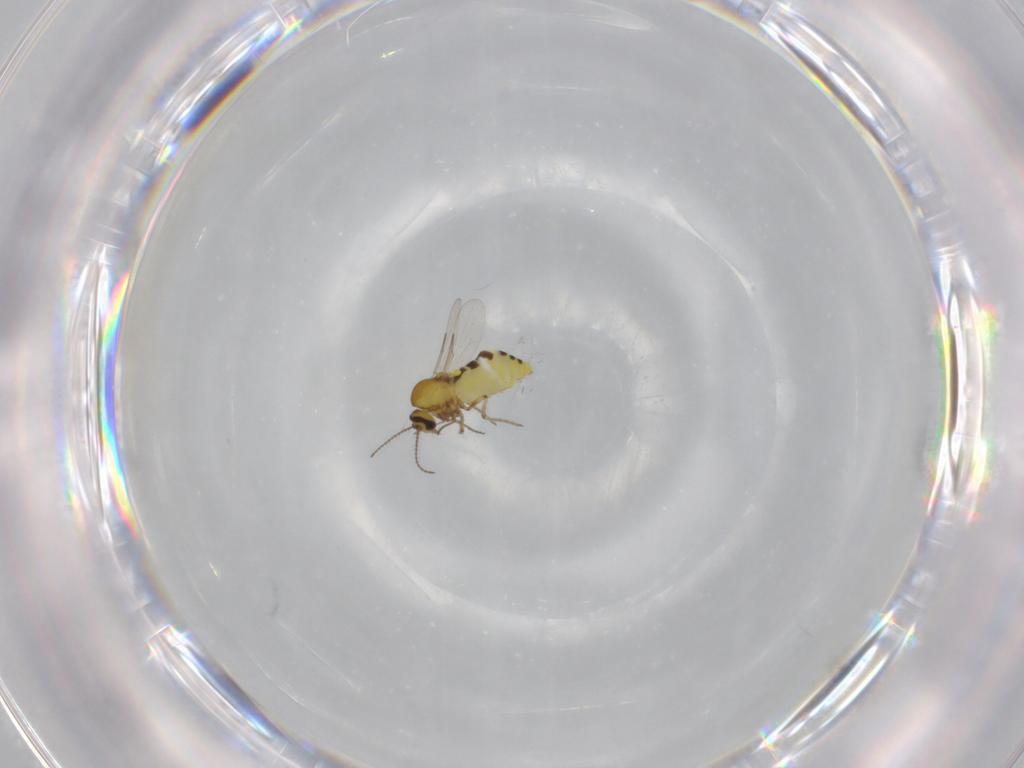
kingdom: Animalia
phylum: Arthropoda
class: Insecta
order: Diptera
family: Ceratopogonidae
